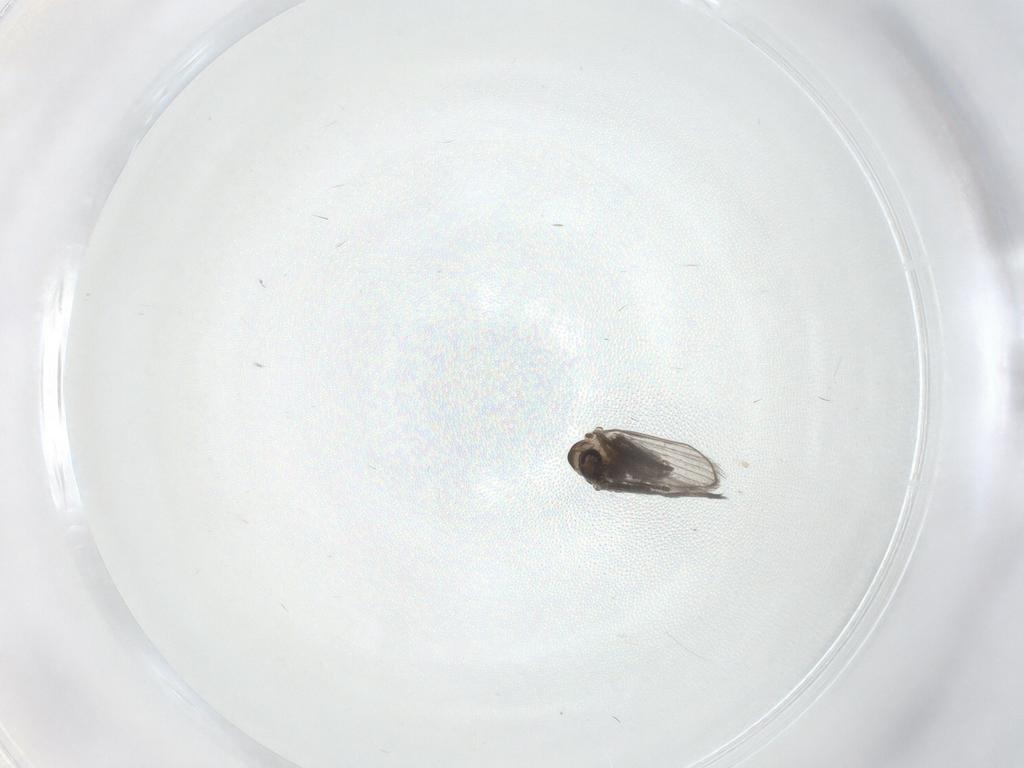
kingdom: Animalia
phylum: Arthropoda
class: Insecta
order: Diptera
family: Psychodidae
